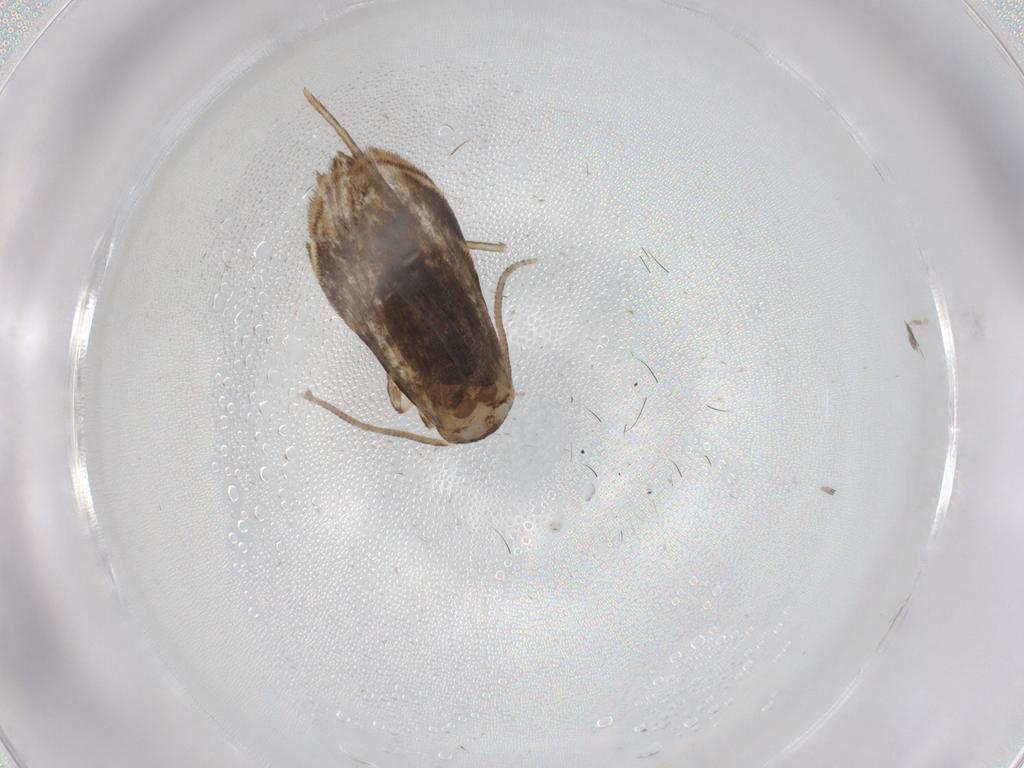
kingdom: Animalia
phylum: Arthropoda
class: Insecta
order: Lepidoptera
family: Dryadaulidae
